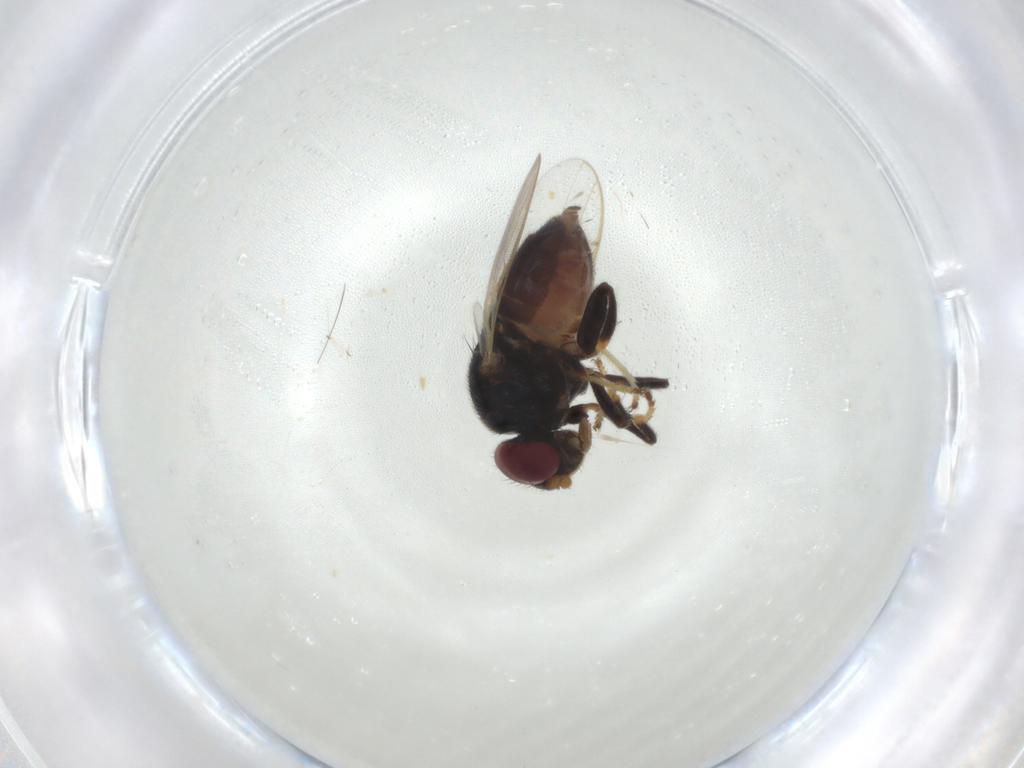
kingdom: Animalia
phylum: Arthropoda
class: Insecta
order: Diptera
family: Chloropidae
